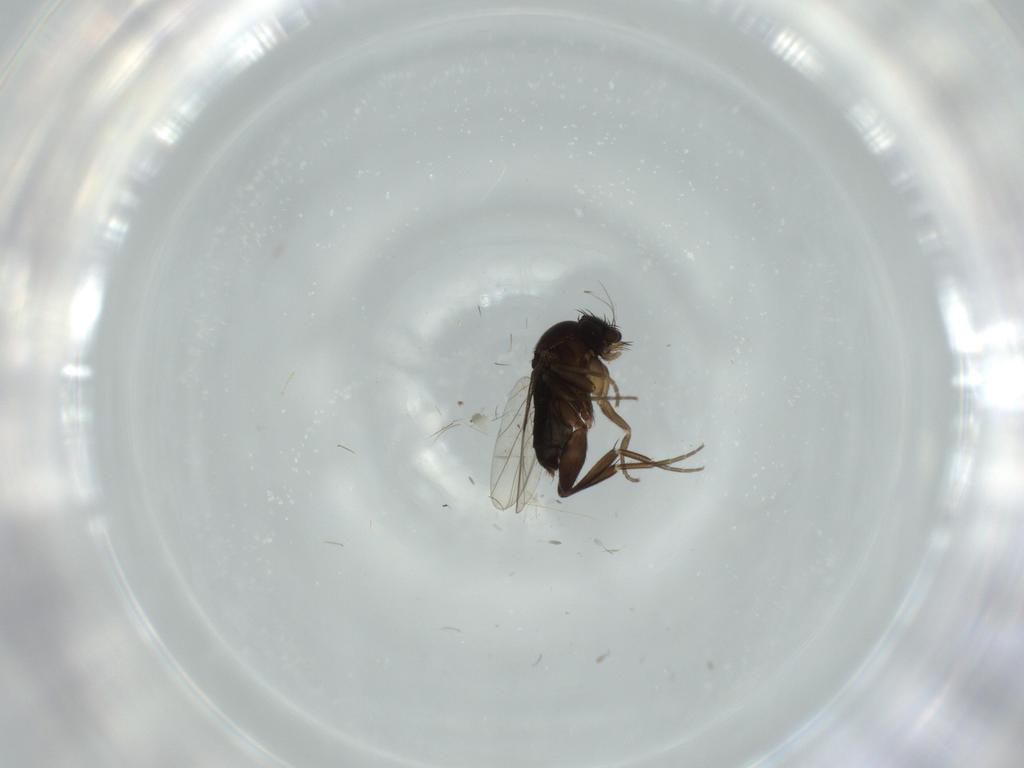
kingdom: Animalia
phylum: Arthropoda
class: Insecta
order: Diptera
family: Phoridae
